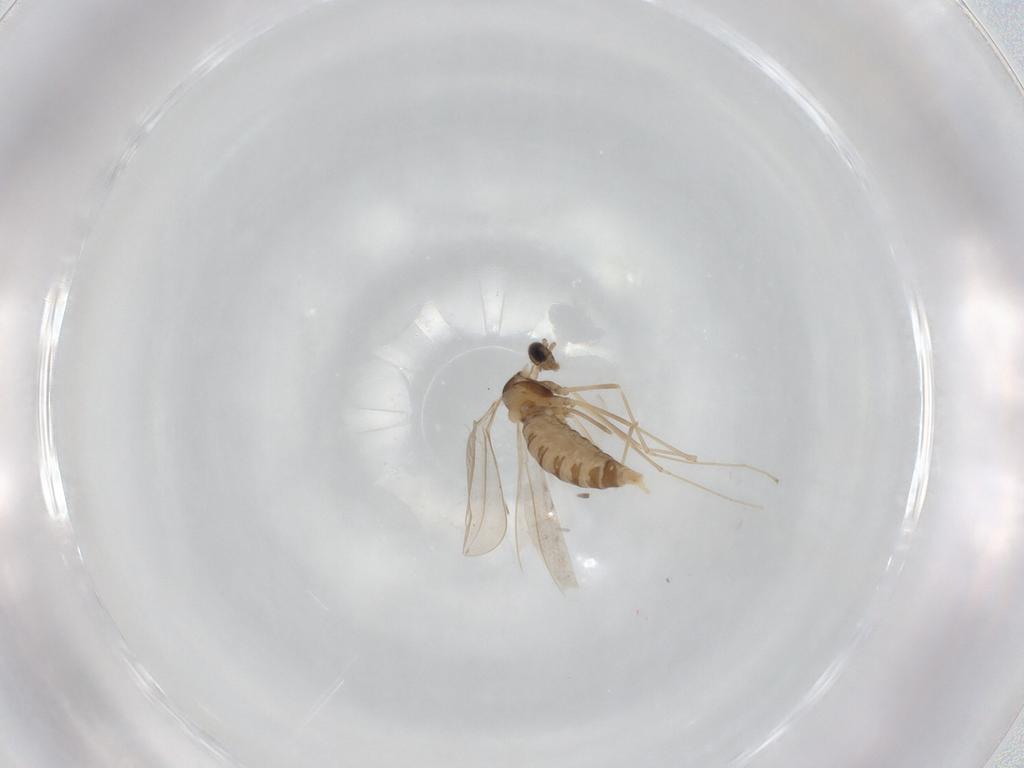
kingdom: Animalia
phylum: Arthropoda
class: Insecta
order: Diptera
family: Cecidomyiidae
